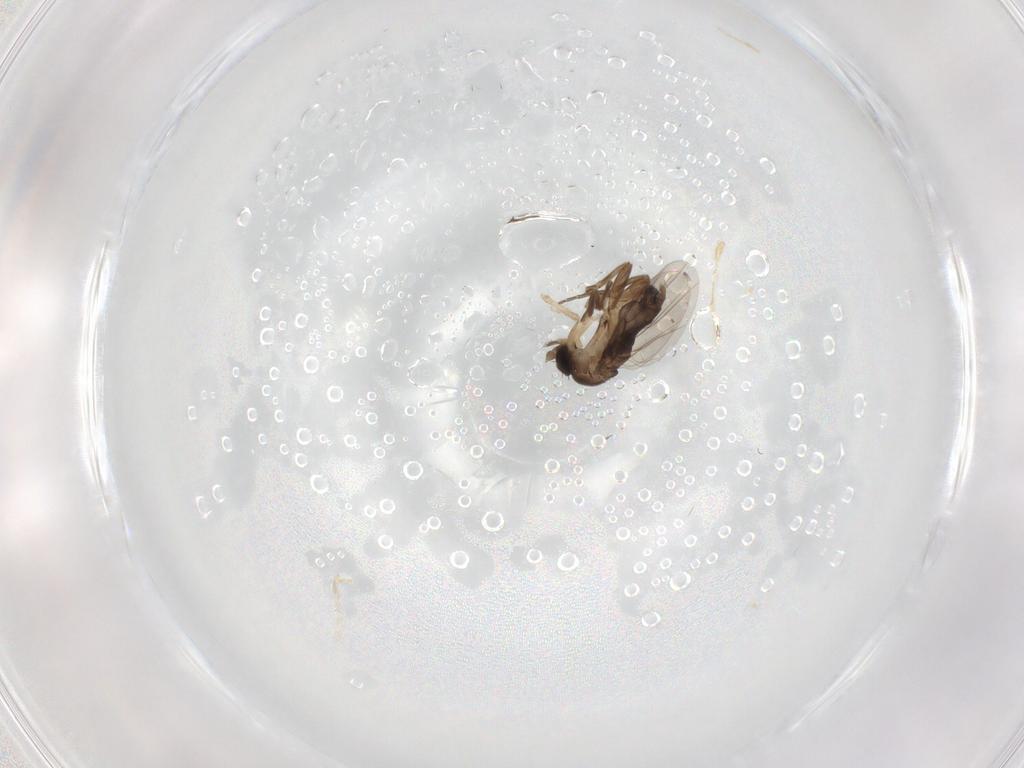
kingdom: Animalia
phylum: Arthropoda
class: Insecta
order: Diptera
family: Phoridae
